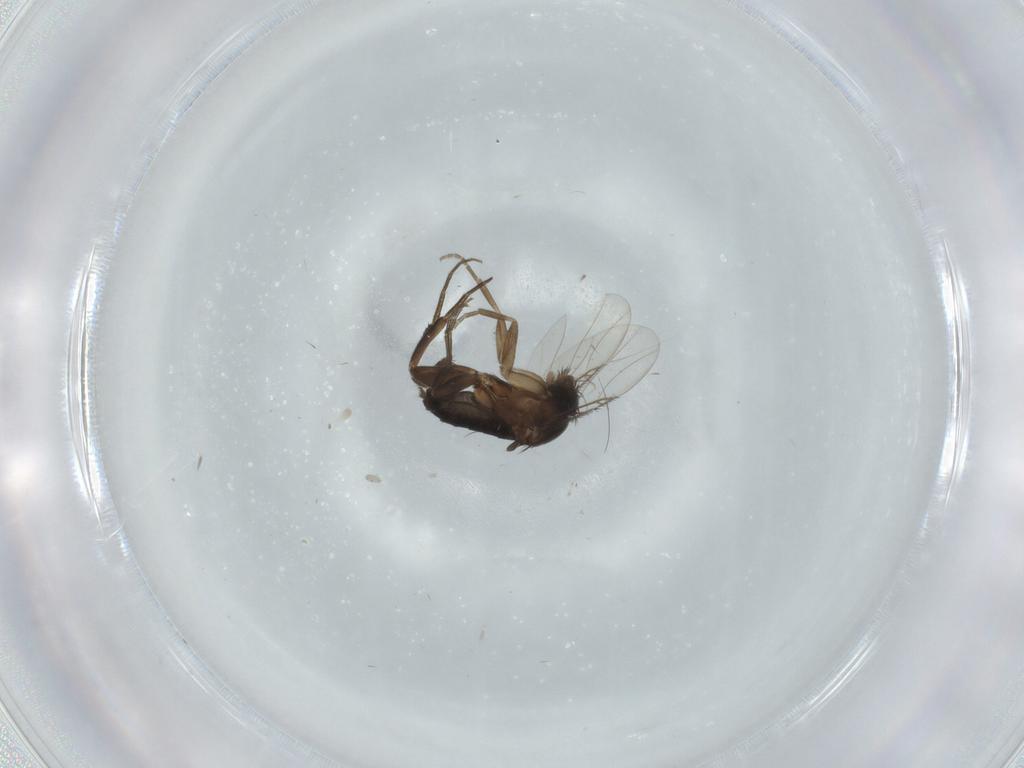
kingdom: Animalia
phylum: Arthropoda
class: Insecta
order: Diptera
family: Phoridae
